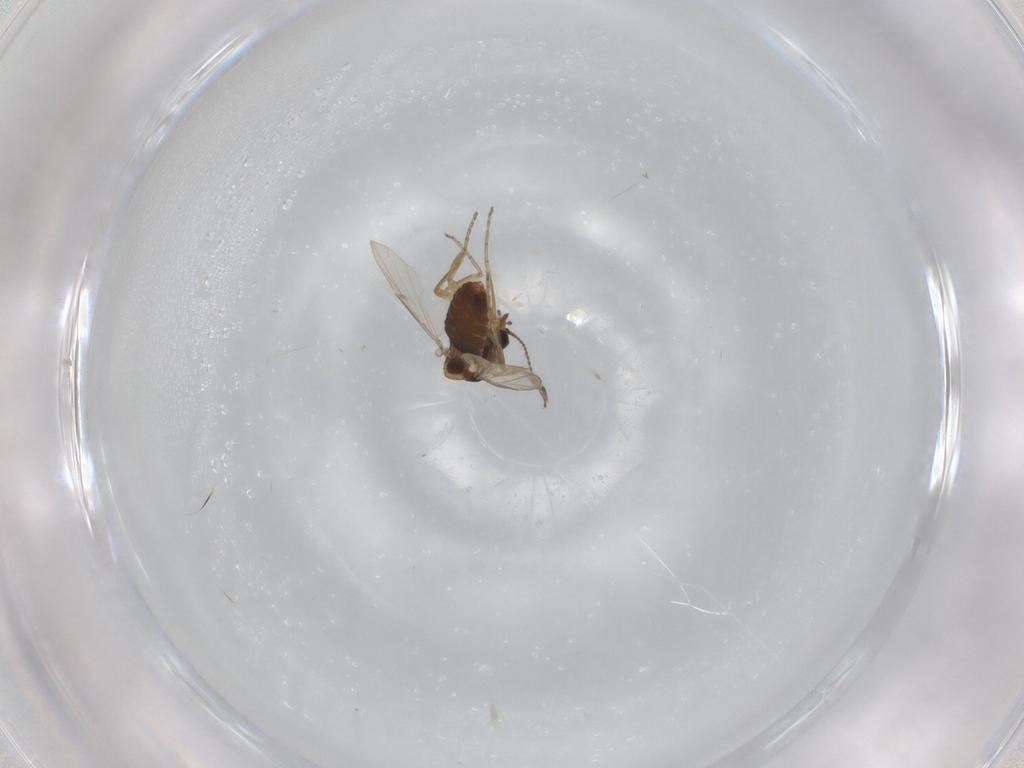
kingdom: Animalia
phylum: Arthropoda
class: Insecta
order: Diptera
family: Ceratopogonidae
